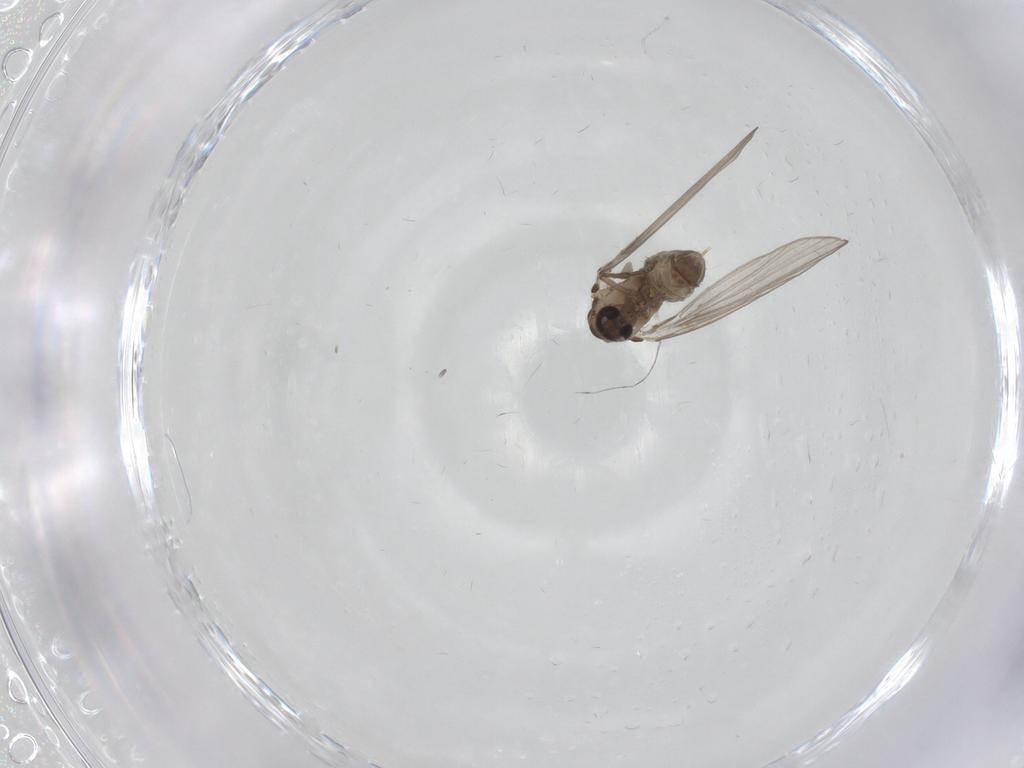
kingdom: Animalia
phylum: Arthropoda
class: Insecta
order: Diptera
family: Psychodidae
